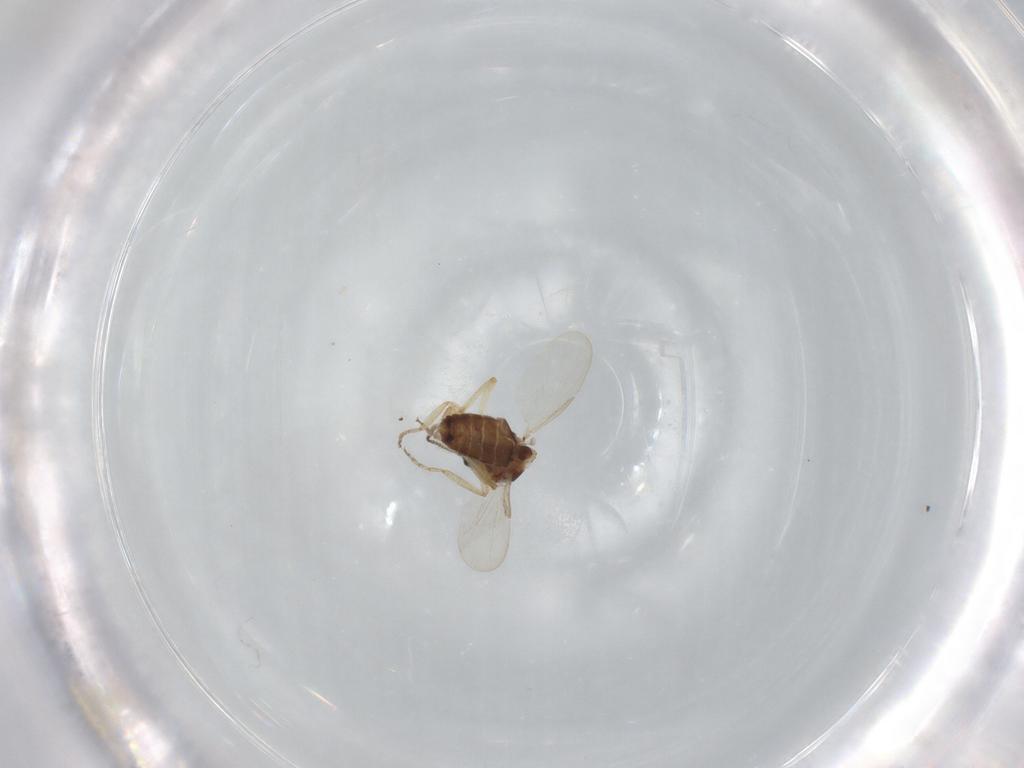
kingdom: Animalia
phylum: Arthropoda
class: Insecta
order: Diptera
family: Ceratopogonidae
